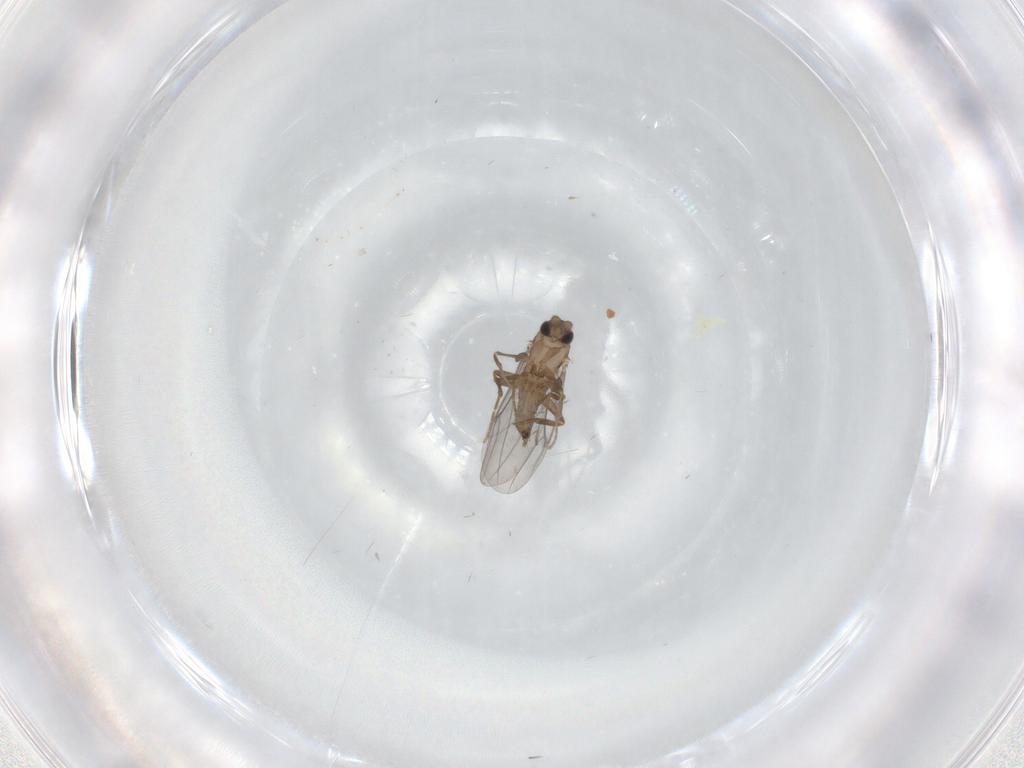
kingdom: Animalia
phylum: Arthropoda
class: Insecta
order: Diptera
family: Cecidomyiidae
